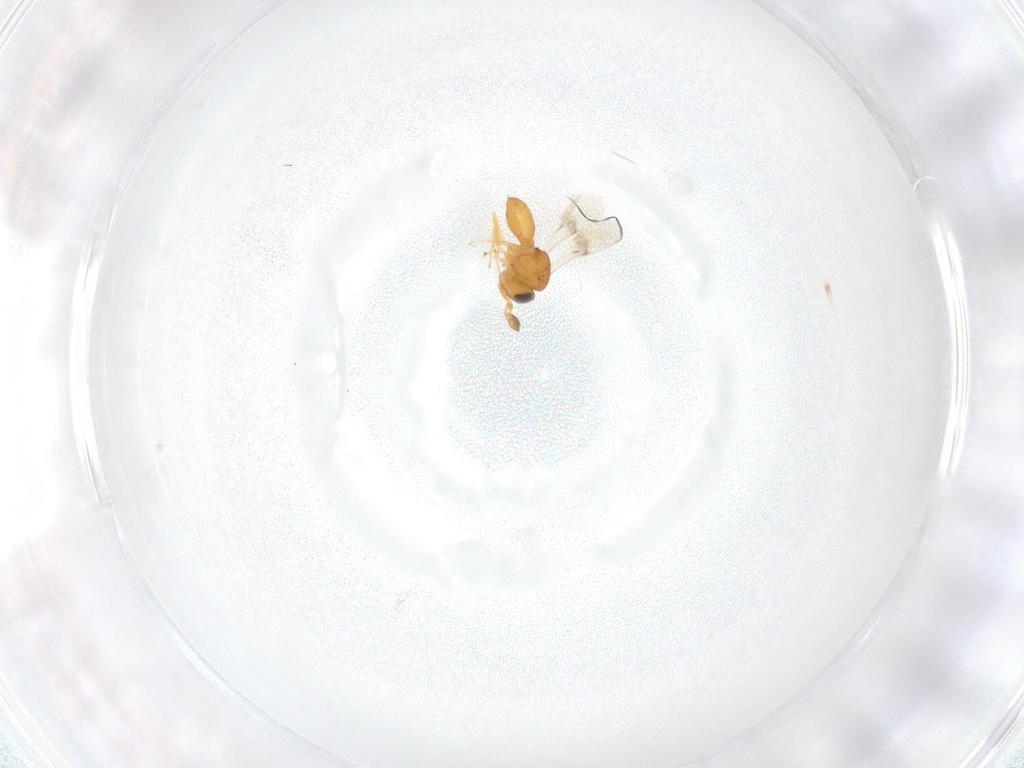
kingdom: Animalia
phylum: Arthropoda
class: Insecta
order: Hymenoptera
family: Scelionidae
